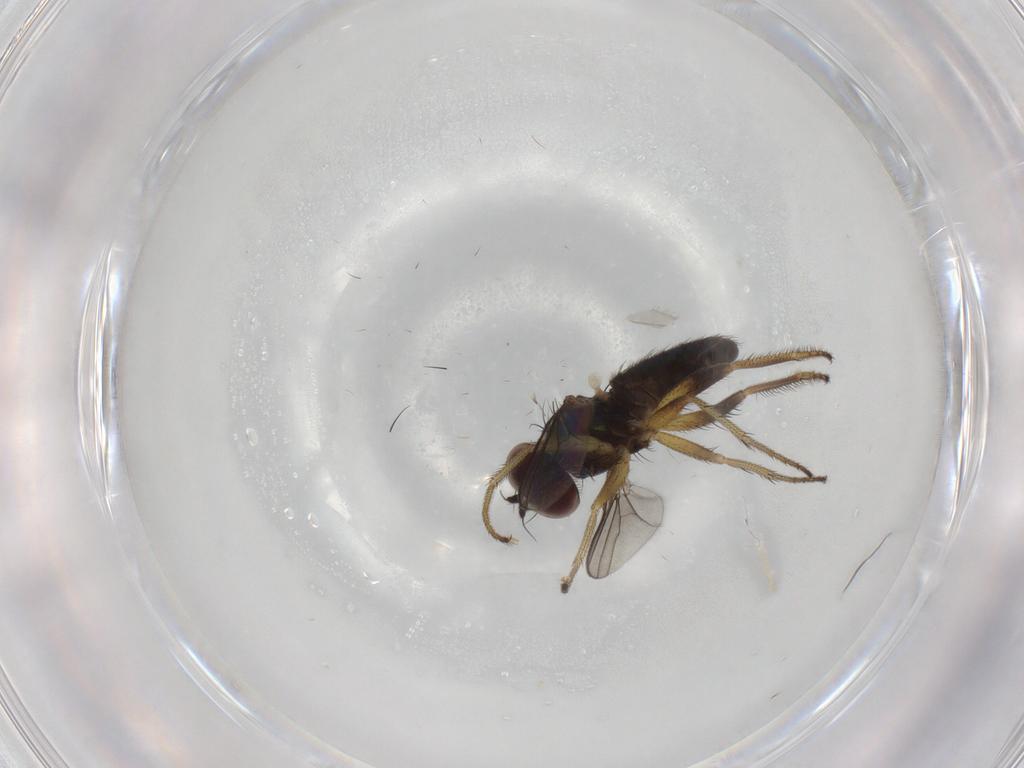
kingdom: Animalia
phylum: Arthropoda
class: Insecta
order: Diptera
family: Dolichopodidae
